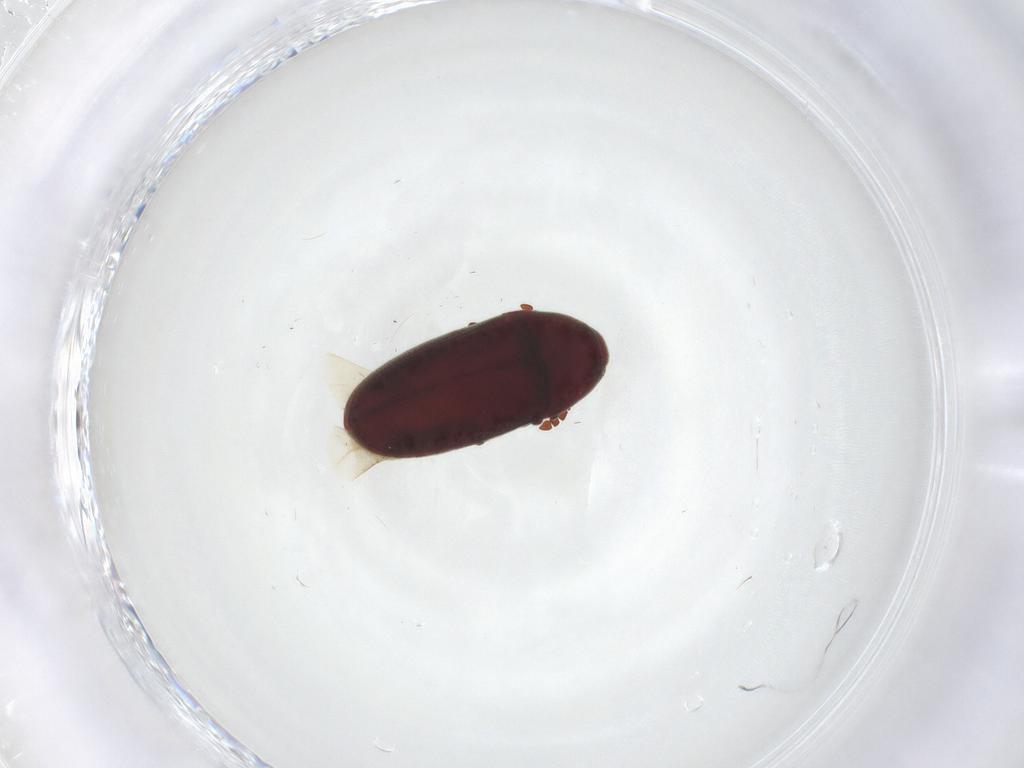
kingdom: Animalia
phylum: Arthropoda
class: Insecta
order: Coleoptera
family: Throscidae
